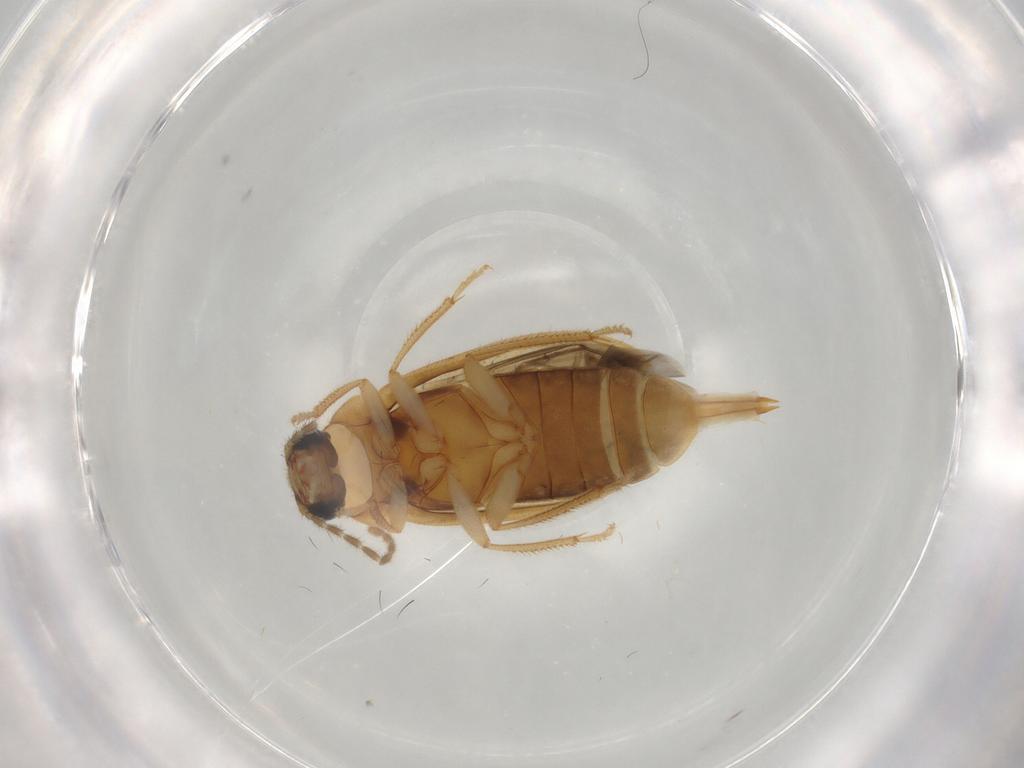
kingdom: Animalia
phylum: Arthropoda
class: Insecta
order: Coleoptera
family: Ptilodactylidae
